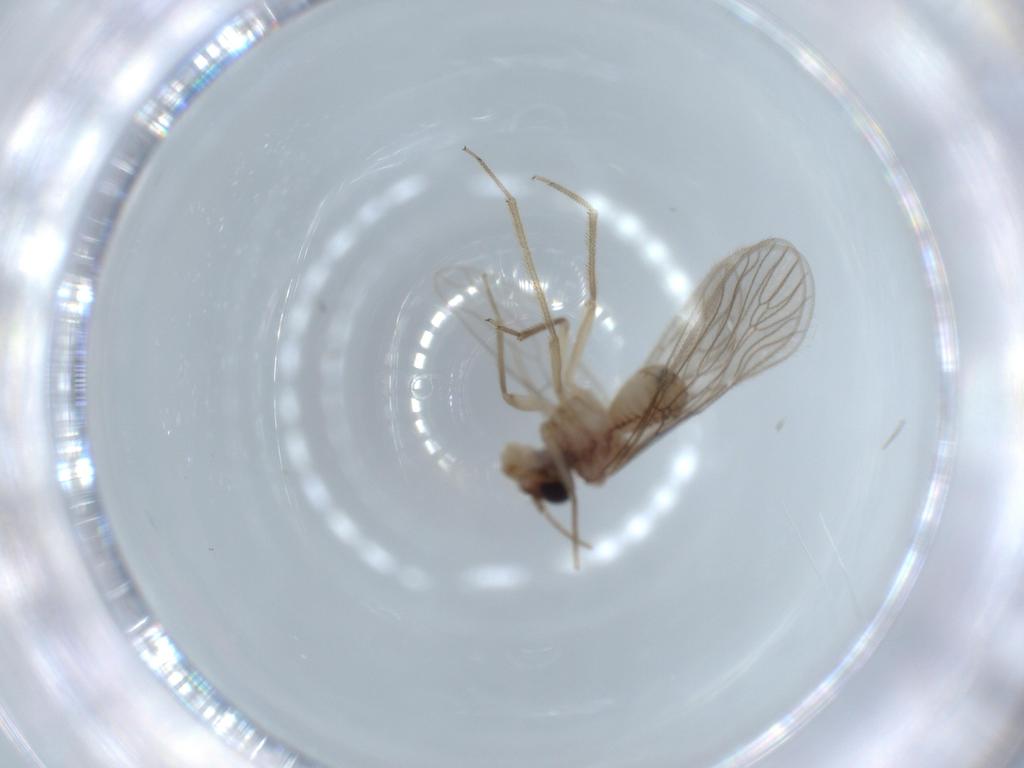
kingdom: Animalia
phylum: Arthropoda
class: Insecta
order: Psocodea
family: Cladiopsocidae
